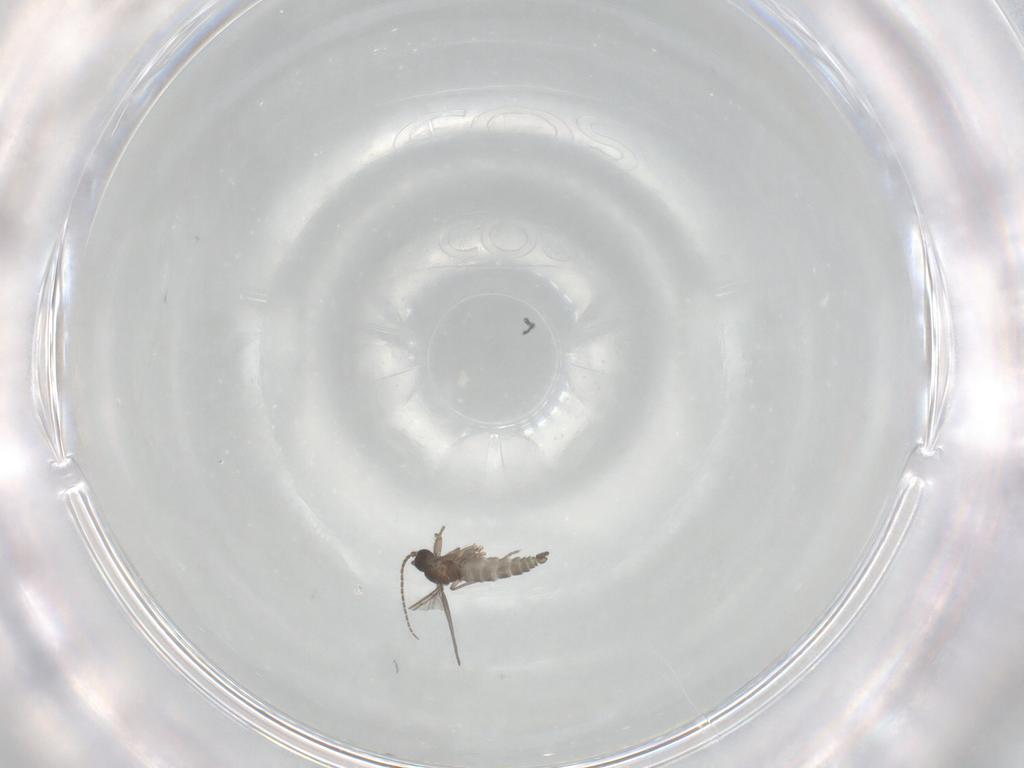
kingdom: Animalia
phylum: Arthropoda
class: Insecta
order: Diptera
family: Sciaridae
